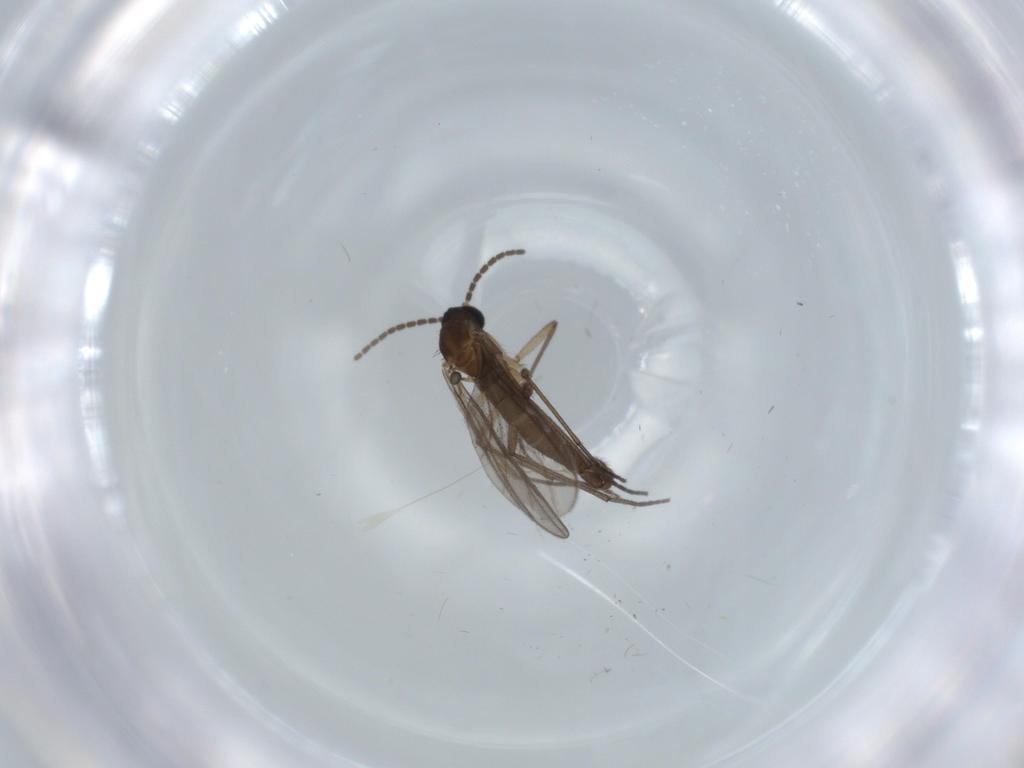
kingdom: Animalia
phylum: Arthropoda
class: Insecta
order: Diptera
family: Sciaridae
